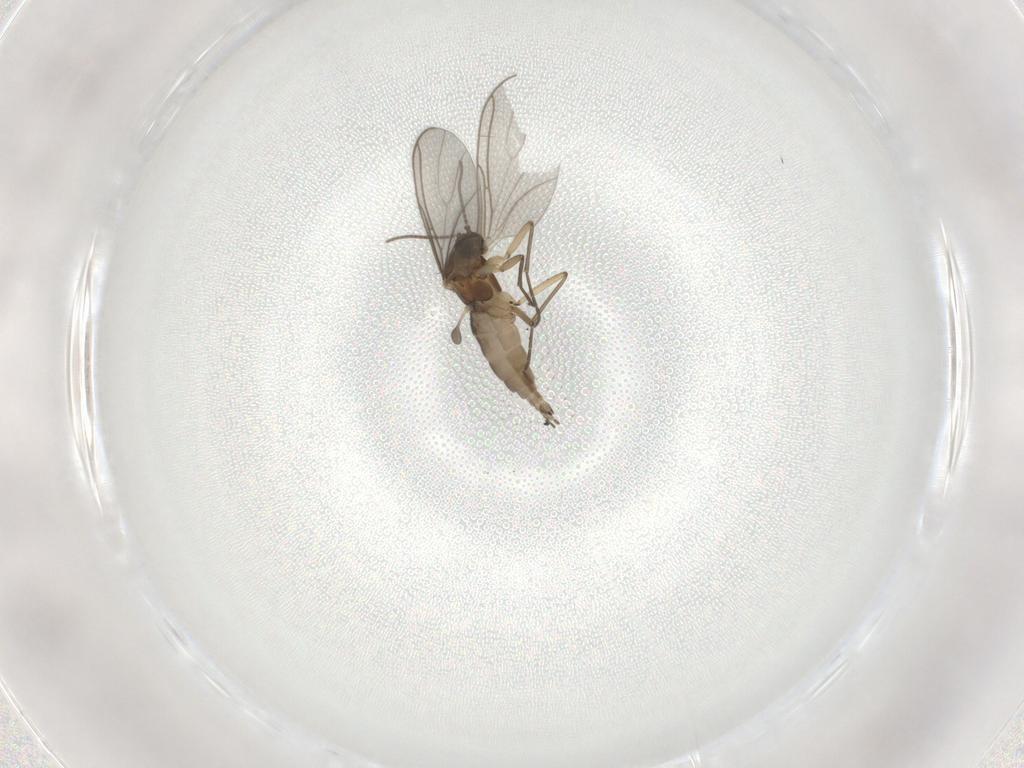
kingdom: Animalia
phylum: Arthropoda
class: Insecta
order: Diptera
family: Sciaridae
